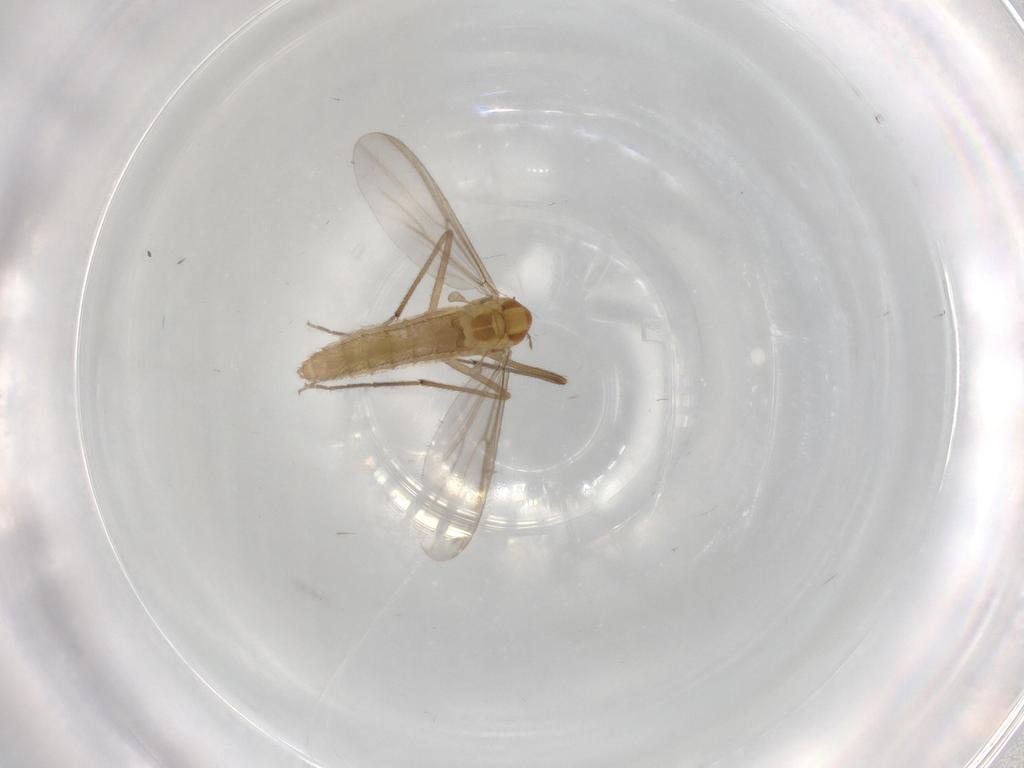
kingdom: Animalia
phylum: Arthropoda
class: Insecta
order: Diptera
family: Chironomidae
